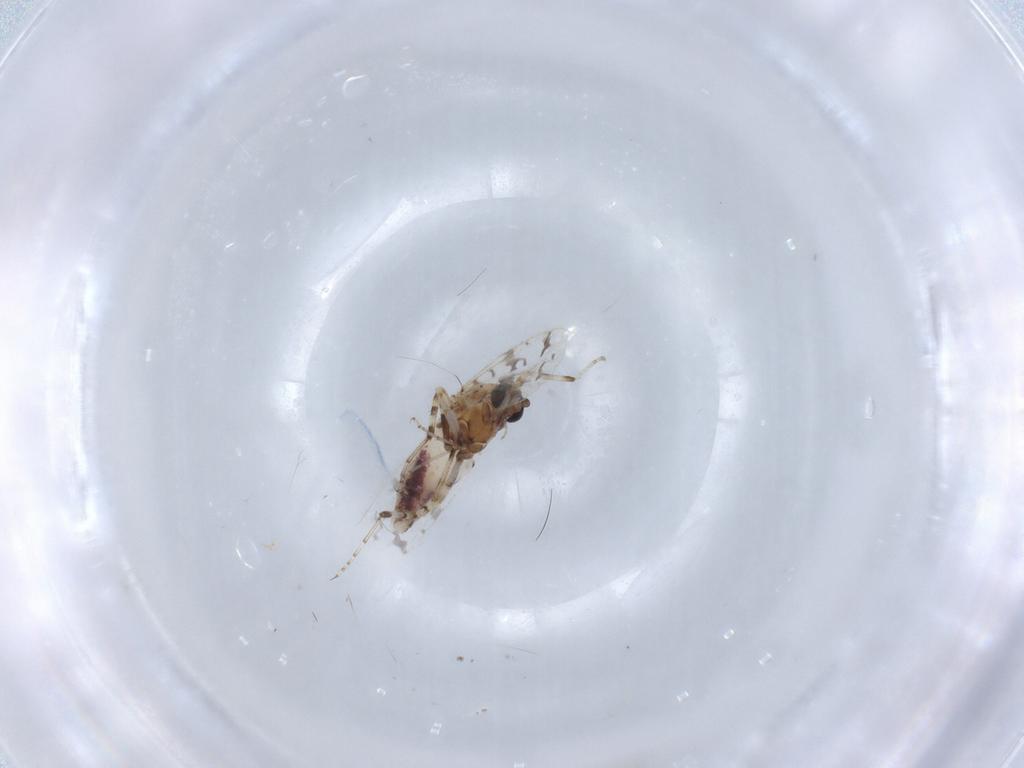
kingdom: Animalia
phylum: Arthropoda
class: Insecta
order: Diptera
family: Ceratopogonidae
